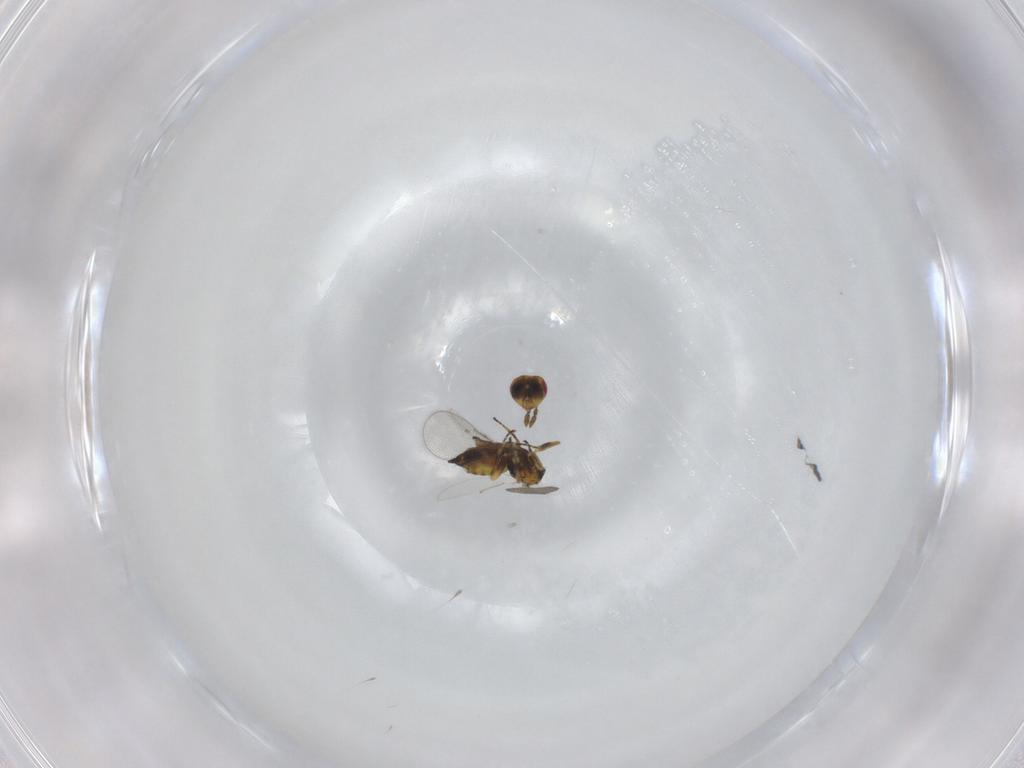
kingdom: Animalia
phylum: Arthropoda
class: Insecta
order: Hymenoptera
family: Eulophidae
